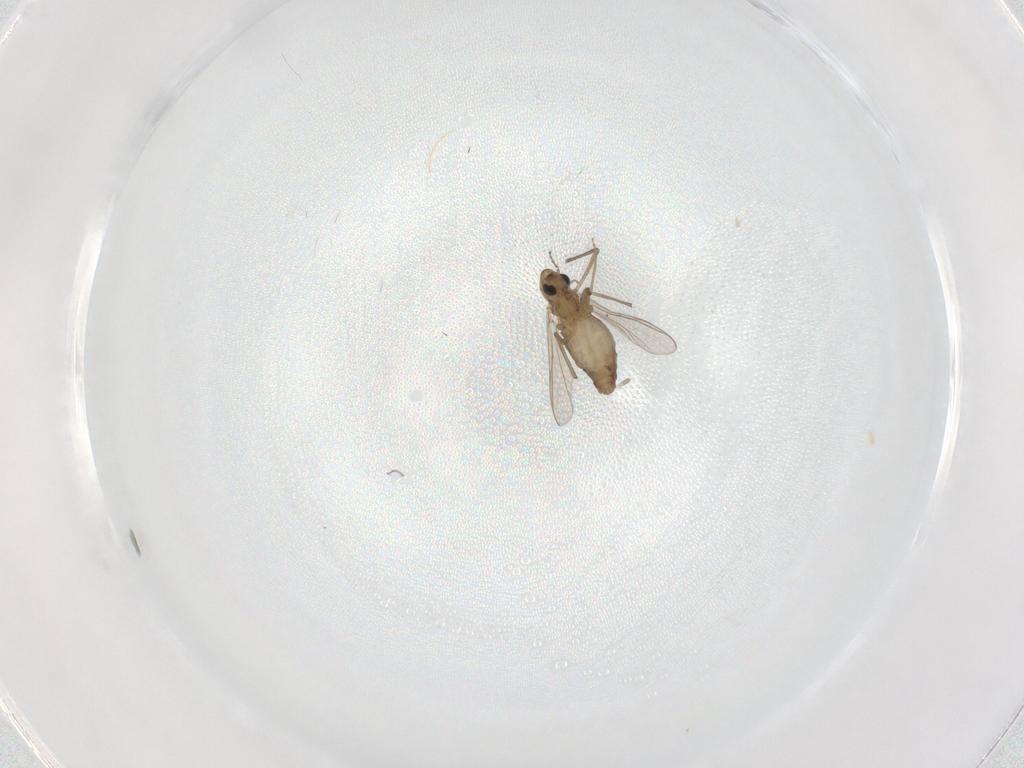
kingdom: Animalia
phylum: Arthropoda
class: Insecta
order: Diptera
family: Chironomidae
